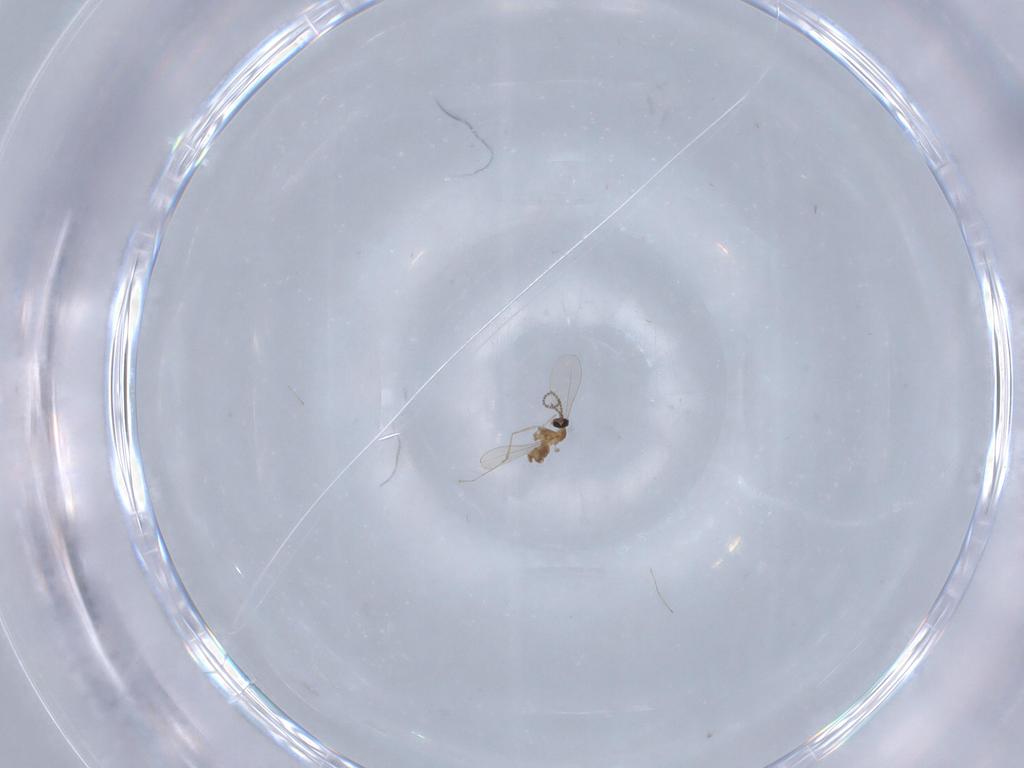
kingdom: Animalia
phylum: Arthropoda
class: Insecta
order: Diptera
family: Cecidomyiidae
